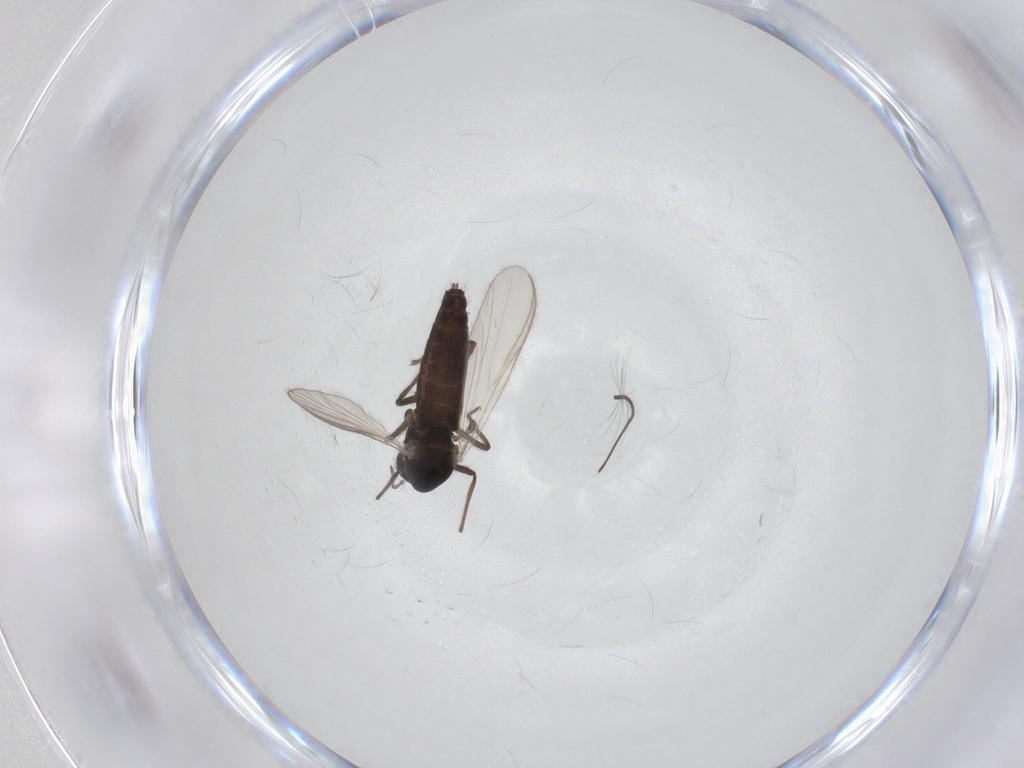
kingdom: Animalia
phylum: Arthropoda
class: Insecta
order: Diptera
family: Chironomidae
